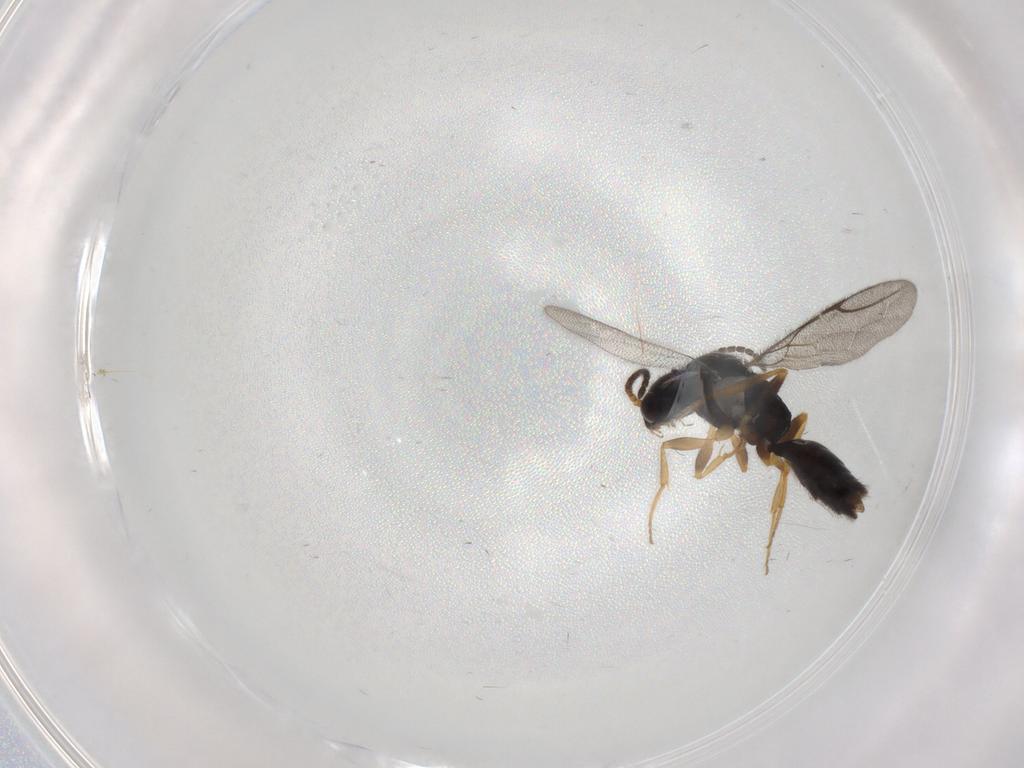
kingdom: Animalia
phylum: Arthropoda
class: Insecta
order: Hymenoptera
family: Bethylidae
